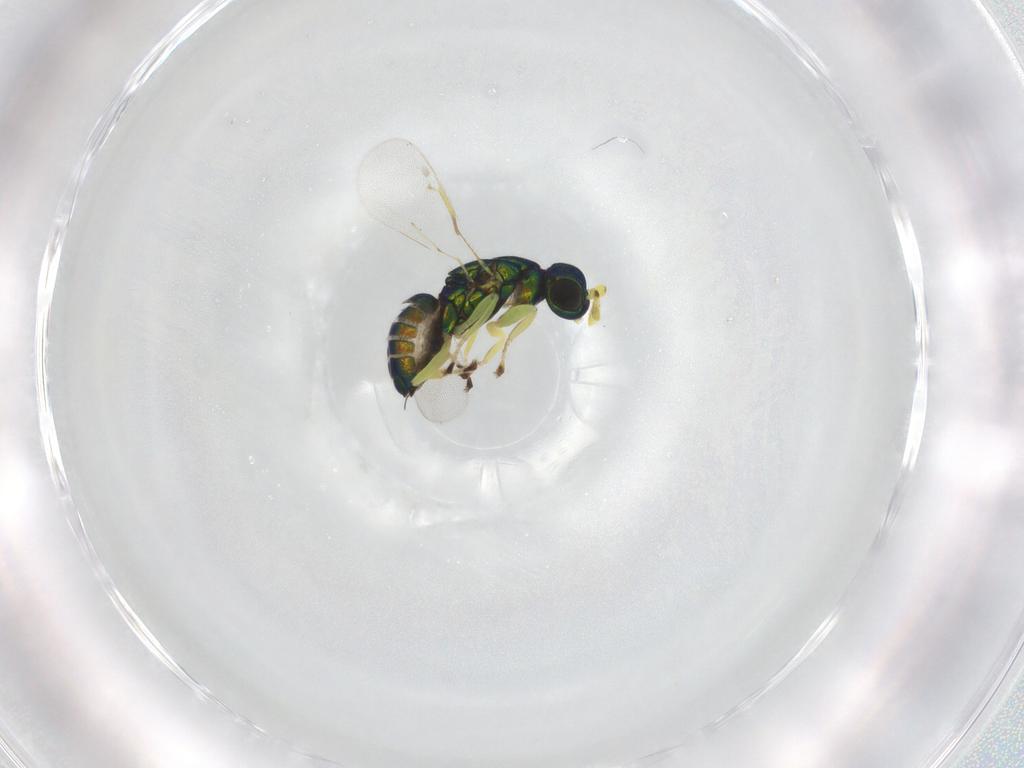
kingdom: Animalia
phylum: Arthropoda
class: Insecta
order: Hymenoptera
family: Eulophidae
